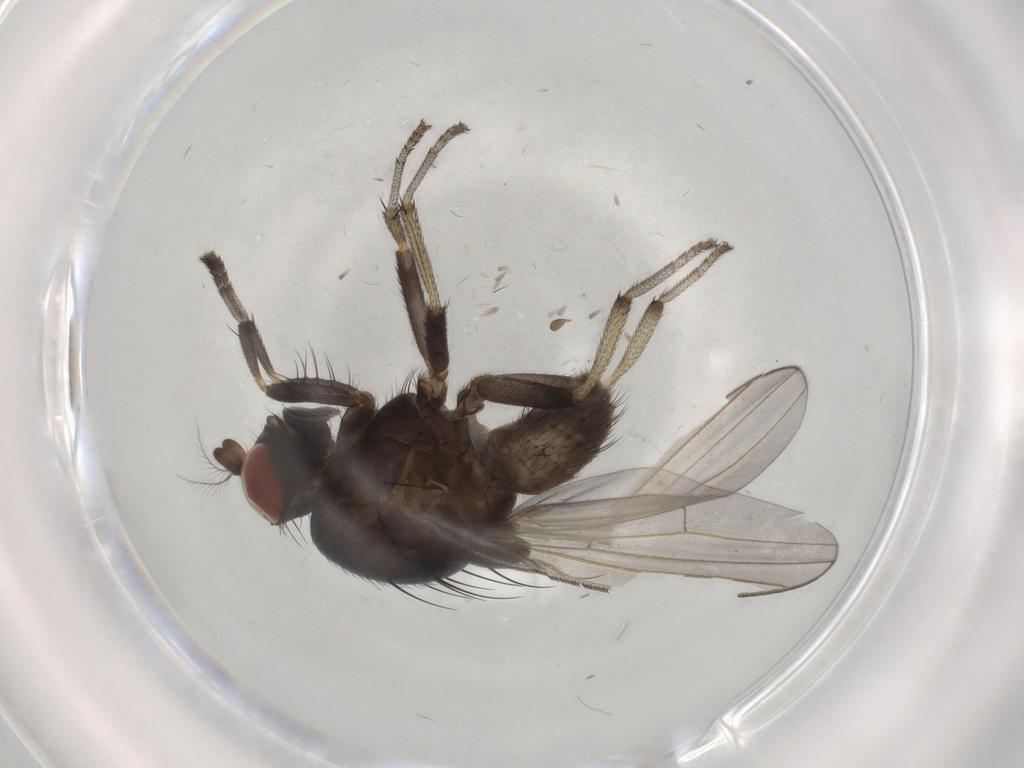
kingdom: Animalia
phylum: Arthropoda
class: Insecta
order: Diptera
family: Lauxaniidae
